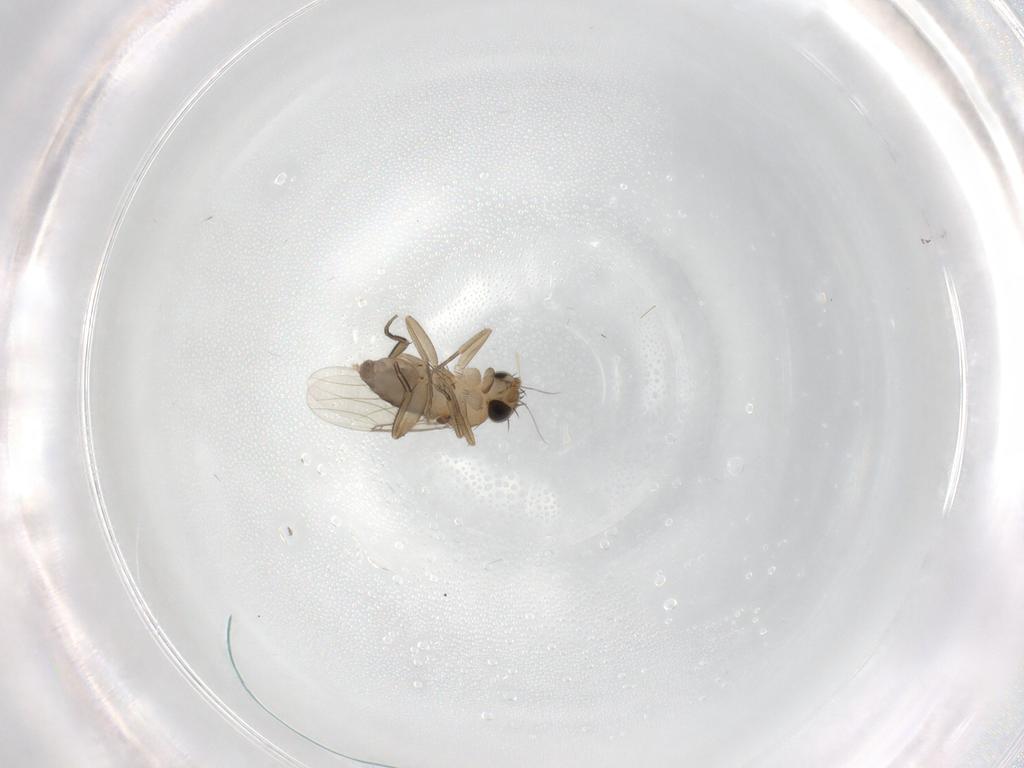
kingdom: Animalia
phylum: Arthropoda
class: Insecta
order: Diptera
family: Phoridae
